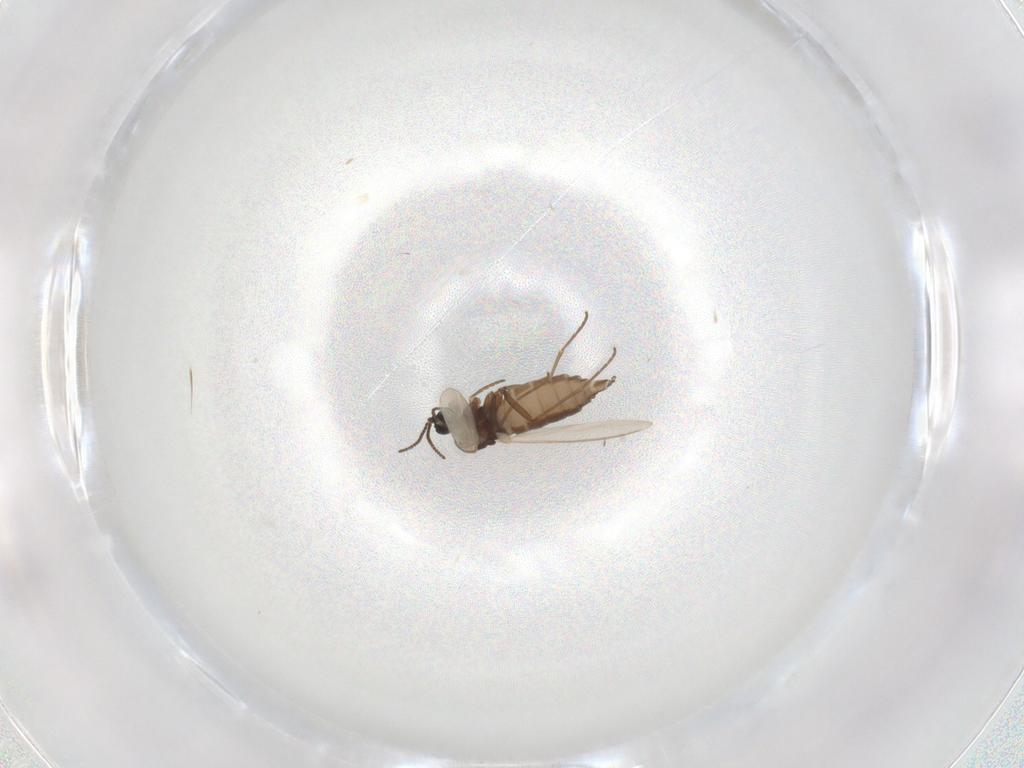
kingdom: Animalia
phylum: Arthropoda
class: Insecta
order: Diptera
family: Sciaridae
